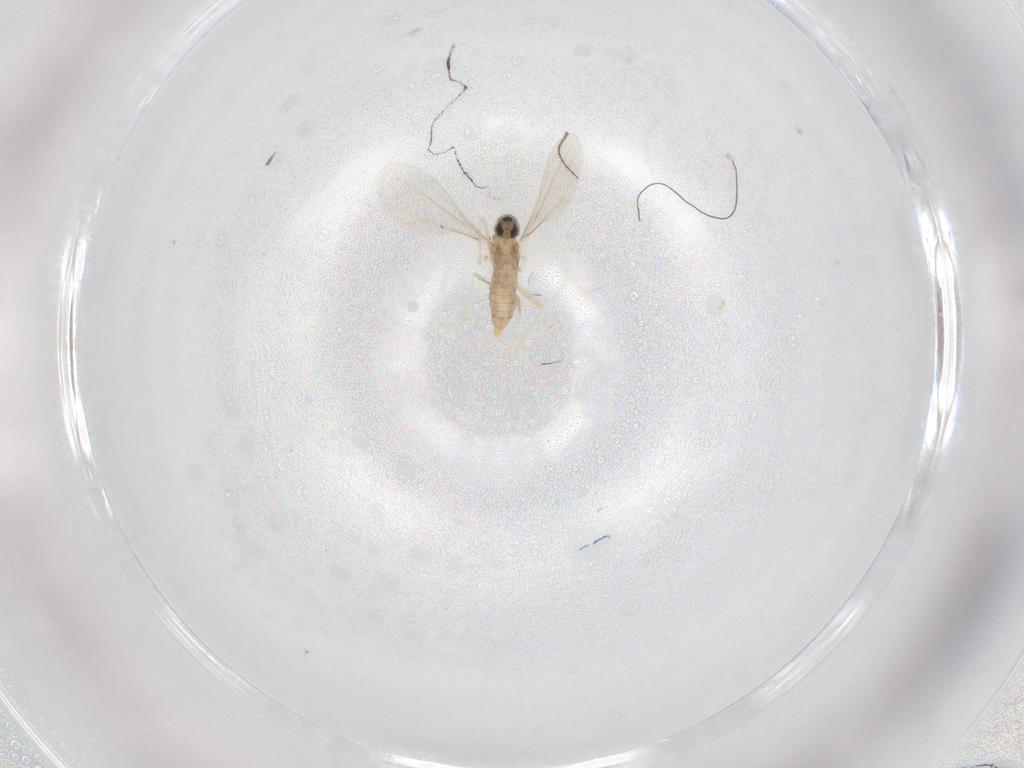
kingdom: Animalia
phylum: Arthropoda
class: Insecta
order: Diptera
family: Cecidomyiidae
